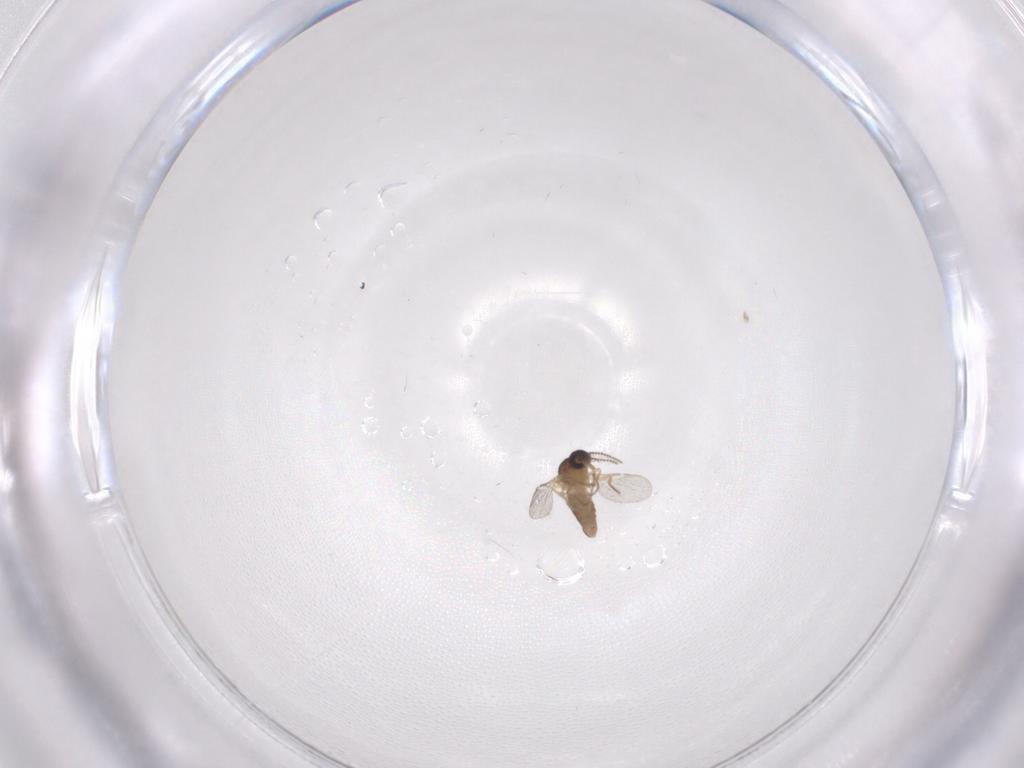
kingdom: Animalia
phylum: Arthropoda
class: Insecta
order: Diptera
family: Ceratopogonidae
